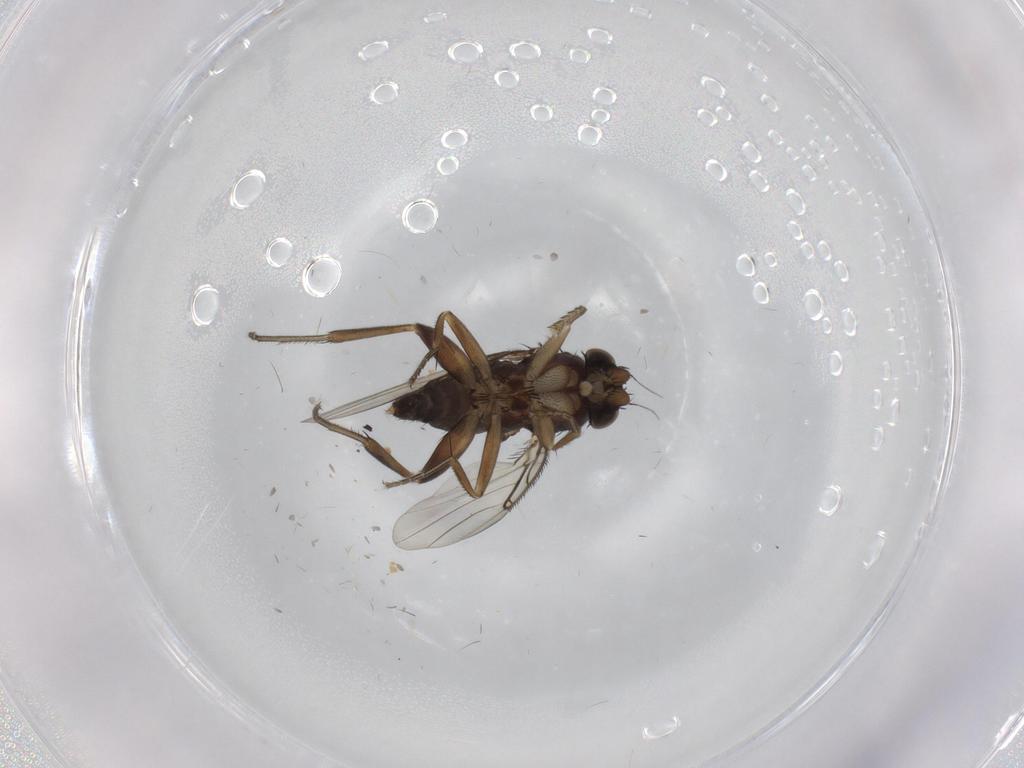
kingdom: Animalia
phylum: Arthropoda
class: Insecta
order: Diptera
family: Phoridae
